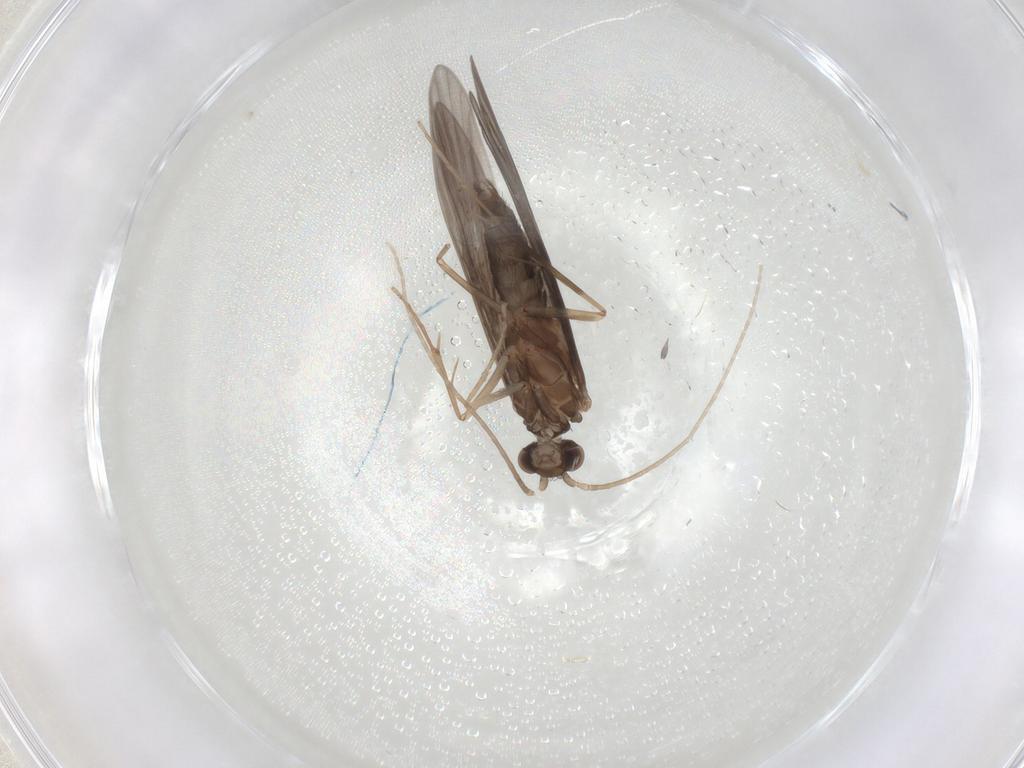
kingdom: Animalia
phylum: Arthropoda
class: Insecta
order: Trichoptera
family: Xiphocentronidae
